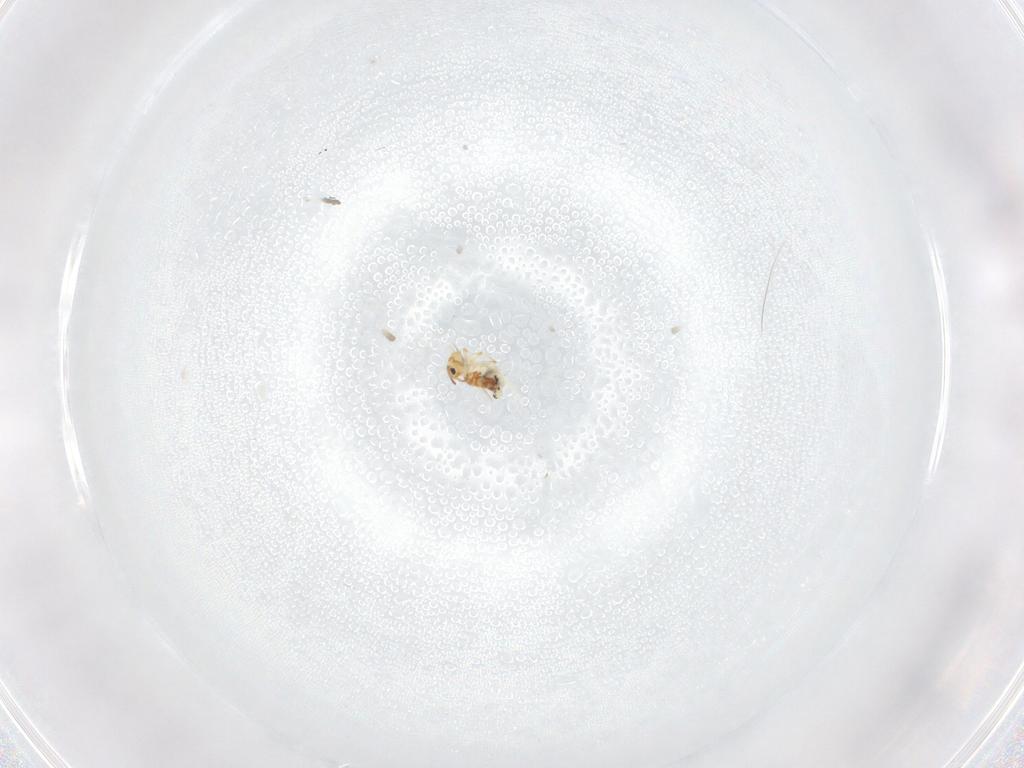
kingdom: Animalia
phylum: Arthropoda
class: Collembola
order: Symphypleona
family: Bourletiellidae
